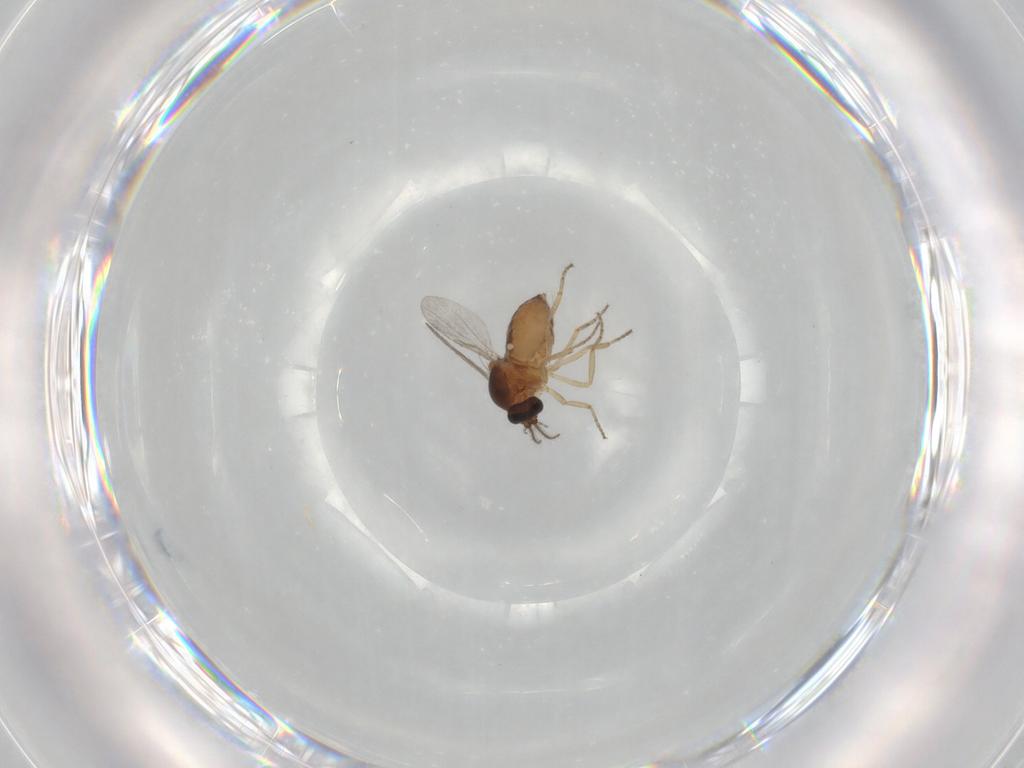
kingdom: Animalia
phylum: Arthropoda
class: Insecta
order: Diptera
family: Ceratopogonidae
